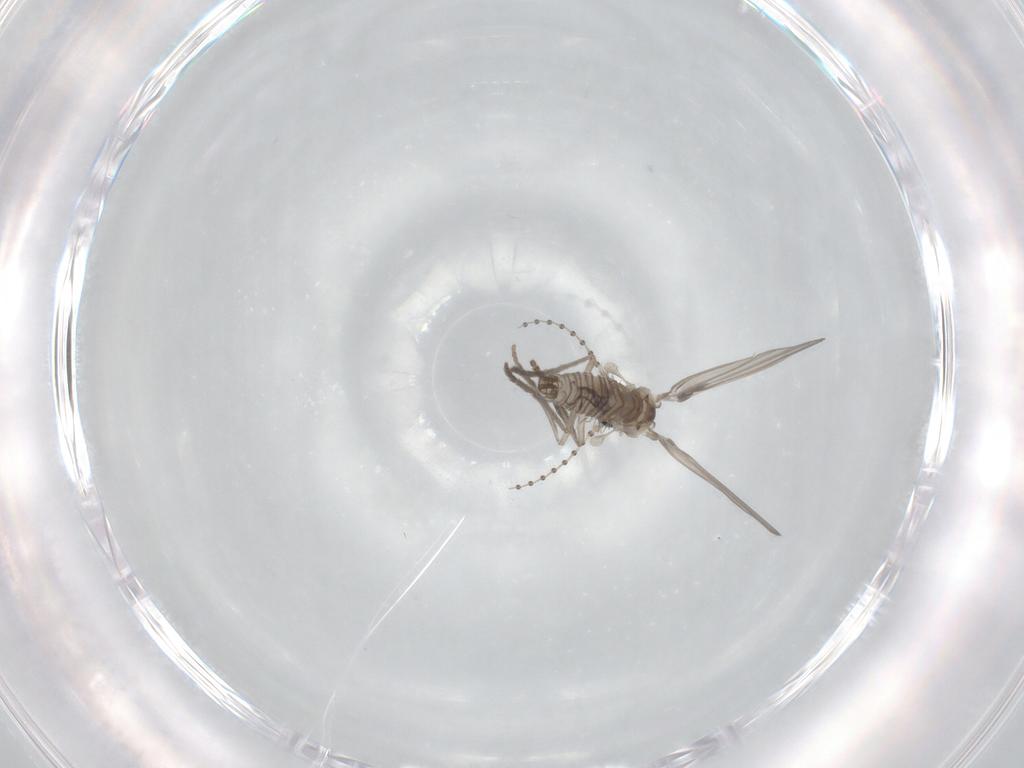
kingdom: Animalia
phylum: Arthropoda
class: Insecta
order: Diptera
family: Psychodidae
